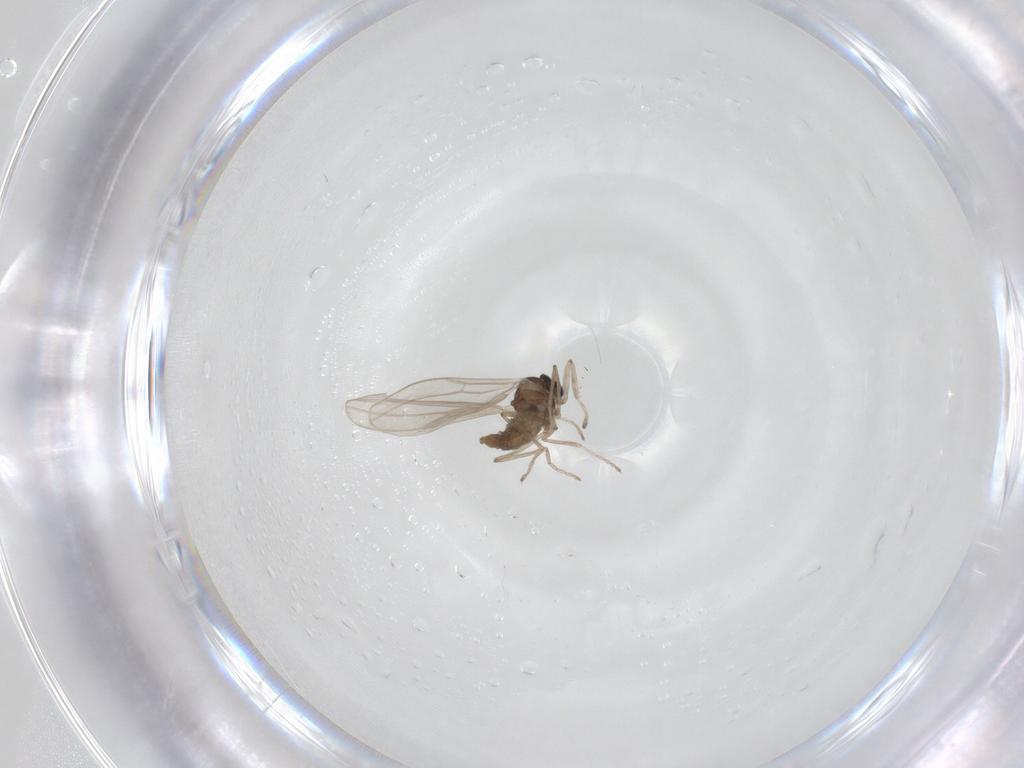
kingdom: Animalia
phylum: Arthropoda
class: Insecta
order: Diptera
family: Cecidomyiidae
